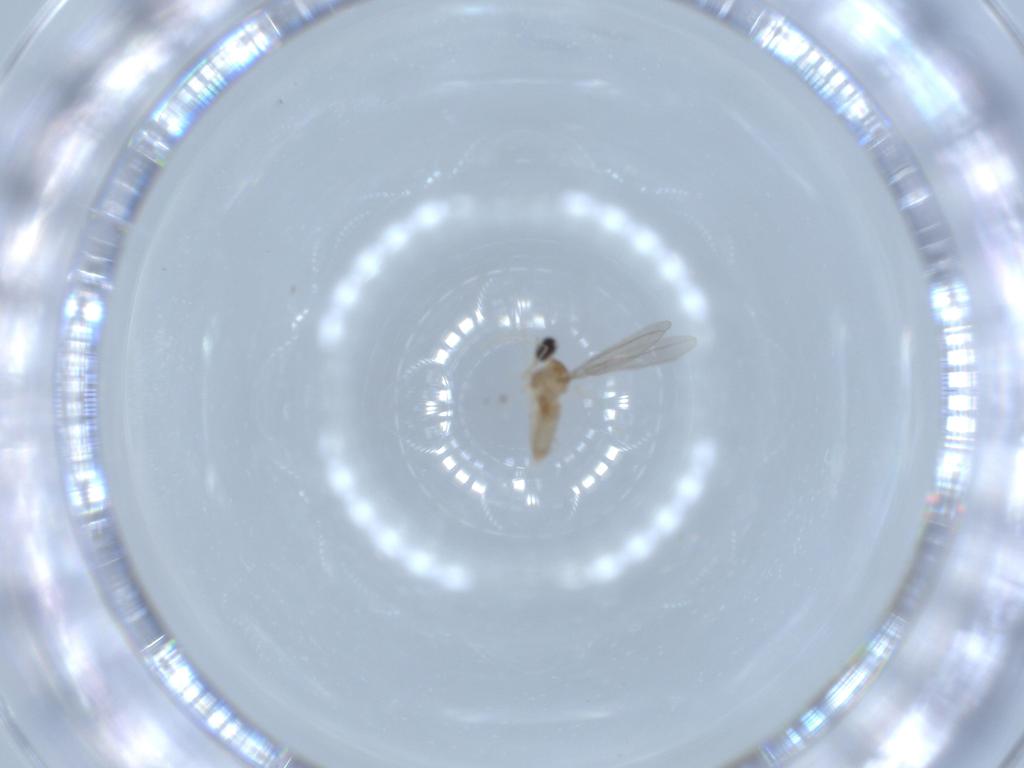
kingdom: Animalia
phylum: Arthropoda
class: Insecta
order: Diptera
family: Cecidomyiidae
